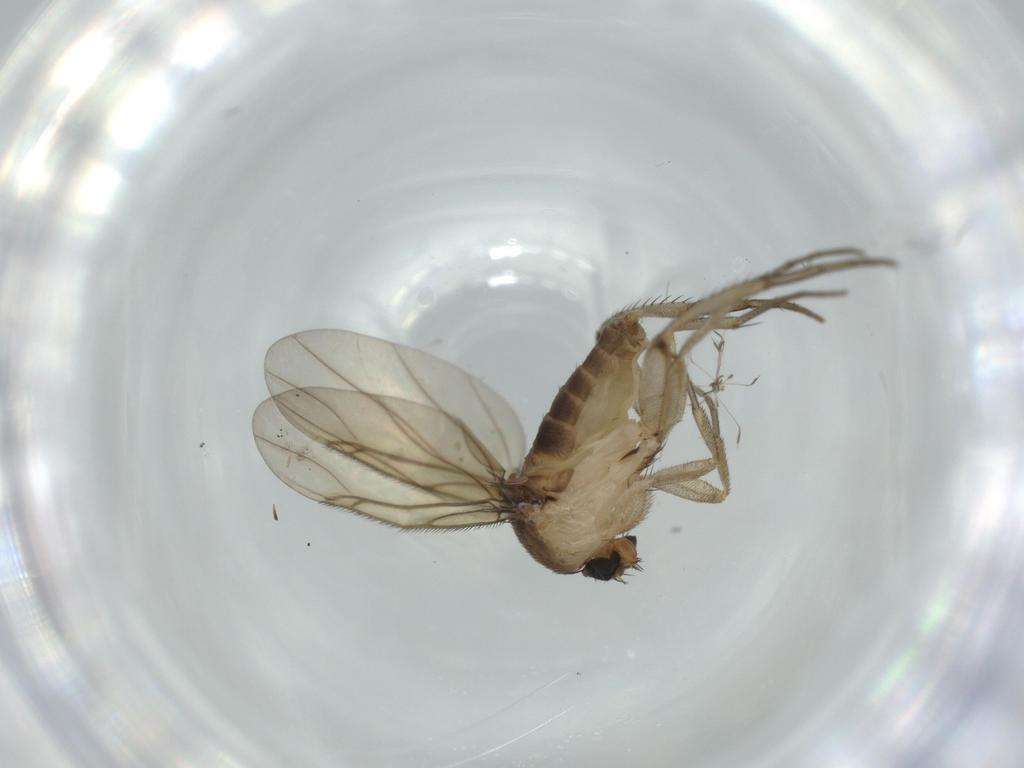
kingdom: Animalia
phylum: Arthropoda
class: Insecta
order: Diptera
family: Phoridae
